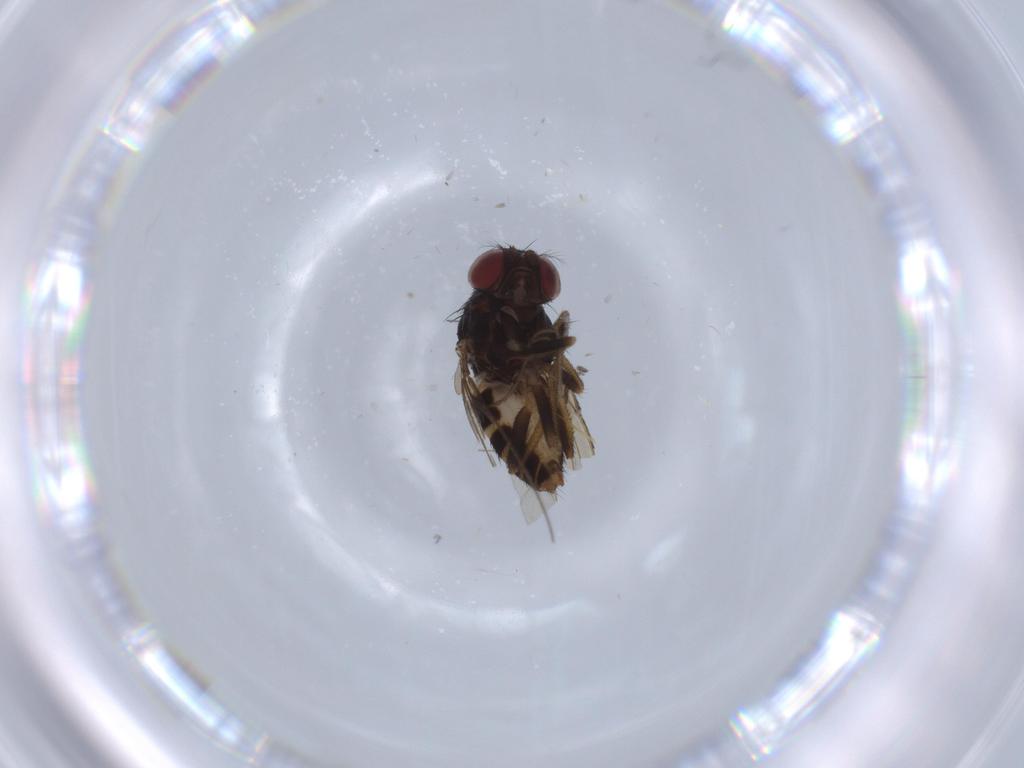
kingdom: Animalia
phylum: Arthropoda
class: Insecta
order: Diptera
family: Drosophilidae
